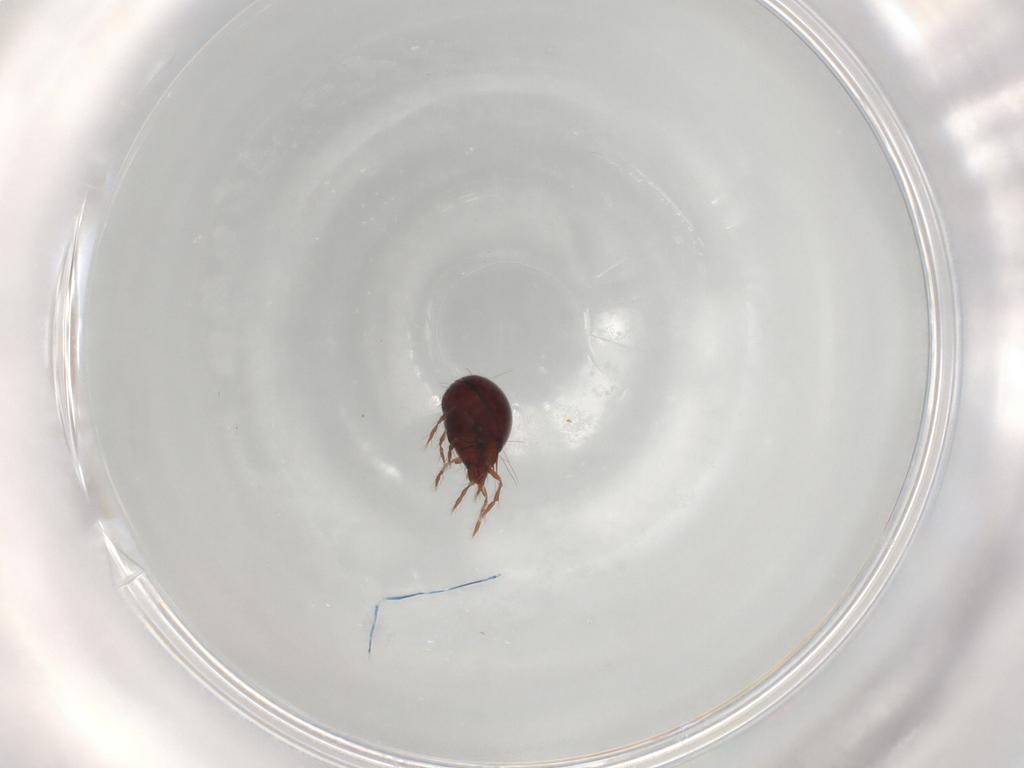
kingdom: Animalia
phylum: Arthropoda
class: Arachnida
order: Sarcoptiformes
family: Ceratoppiidae
